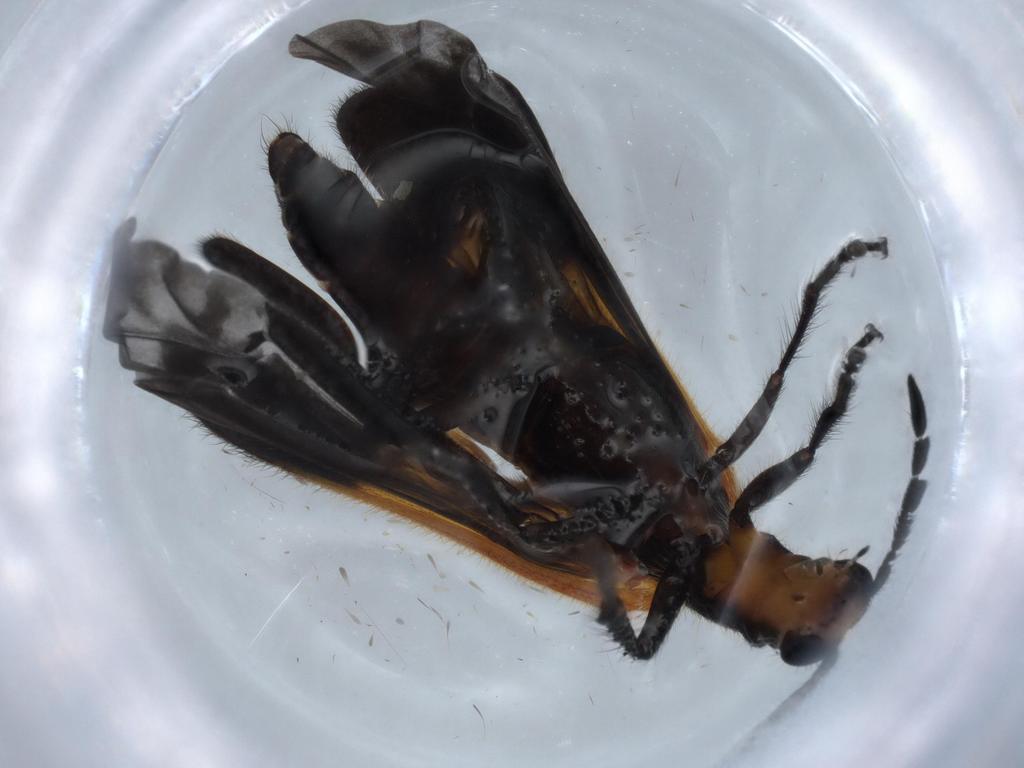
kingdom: Animalia
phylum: Arthropoda
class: Insecta
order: Coleoptera
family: Cleridae
